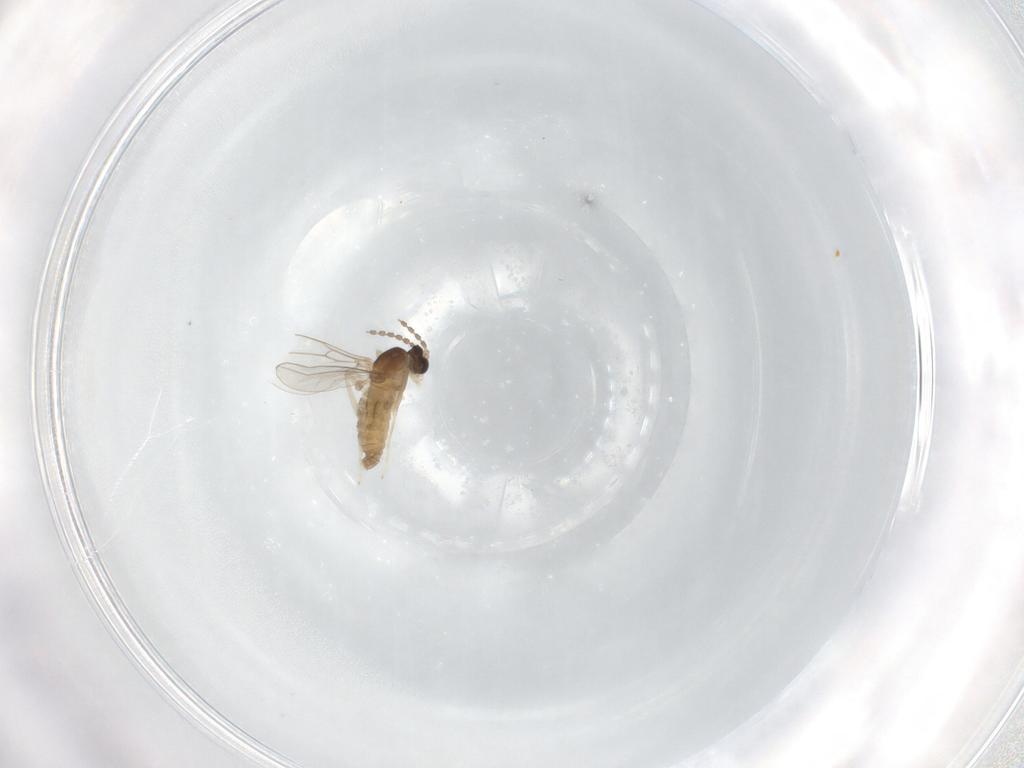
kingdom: Animalia
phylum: Arthropoda
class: Insecta
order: Diptera
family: Cecidomyiidae
